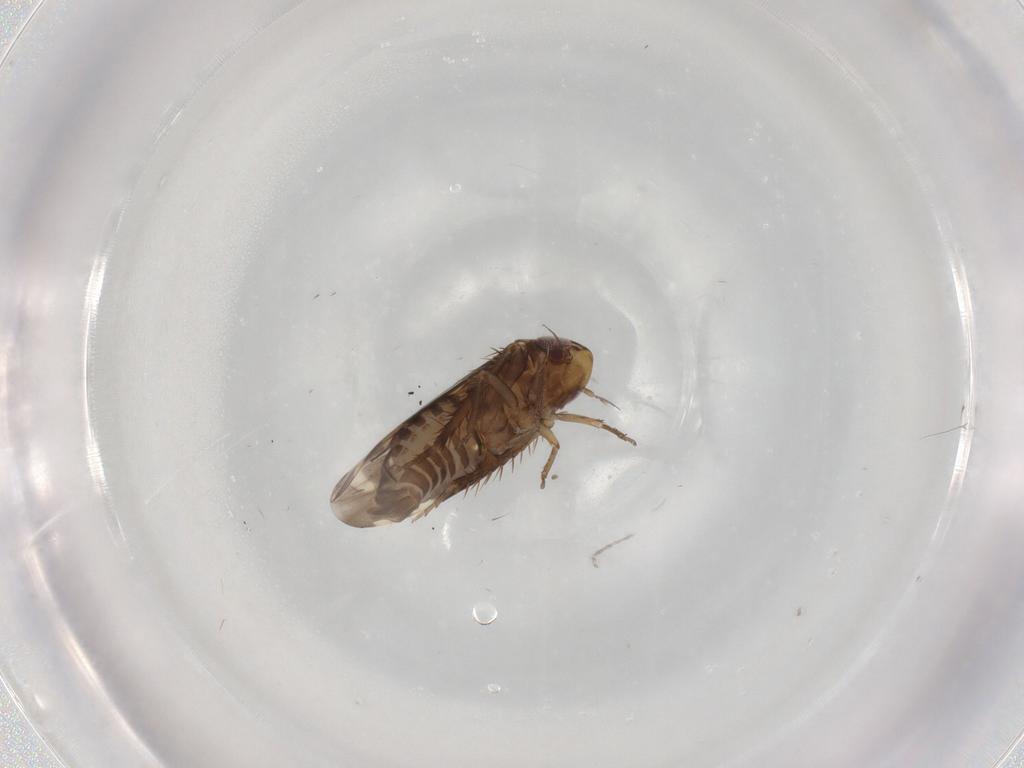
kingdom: Animalia
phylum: Arthropoda
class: Insecta
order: Hemiptera
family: Cicadellidae
